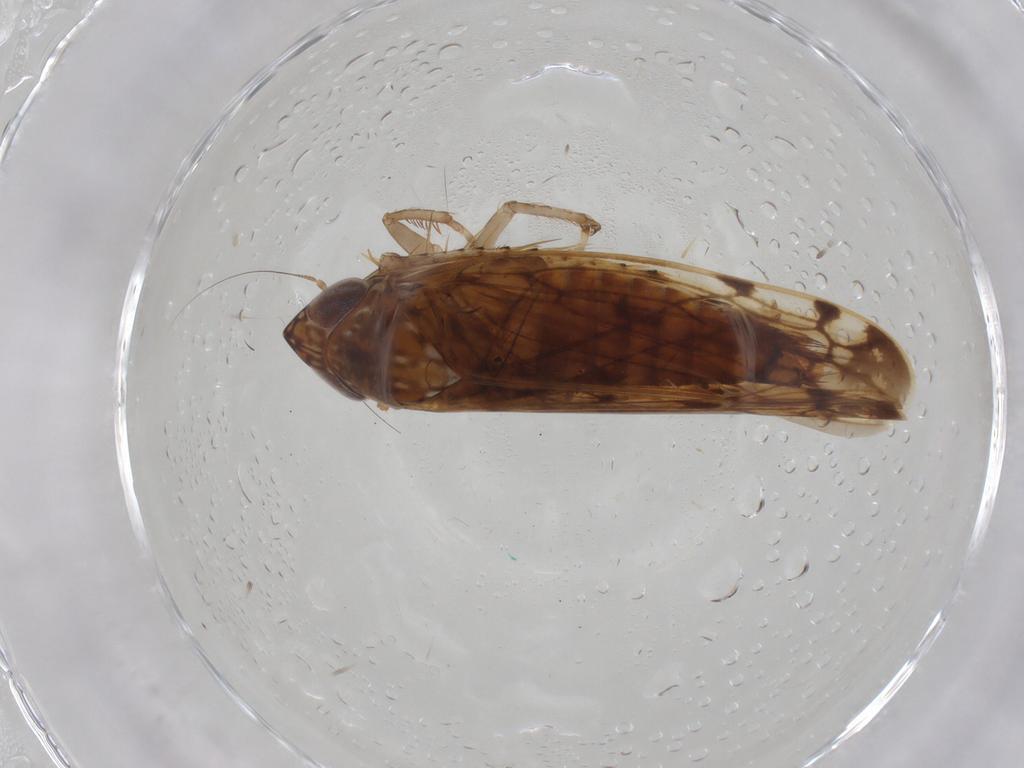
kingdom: Animalia
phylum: Arthropoda
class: Insecta
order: Hemiptera
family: Cicadellidae
